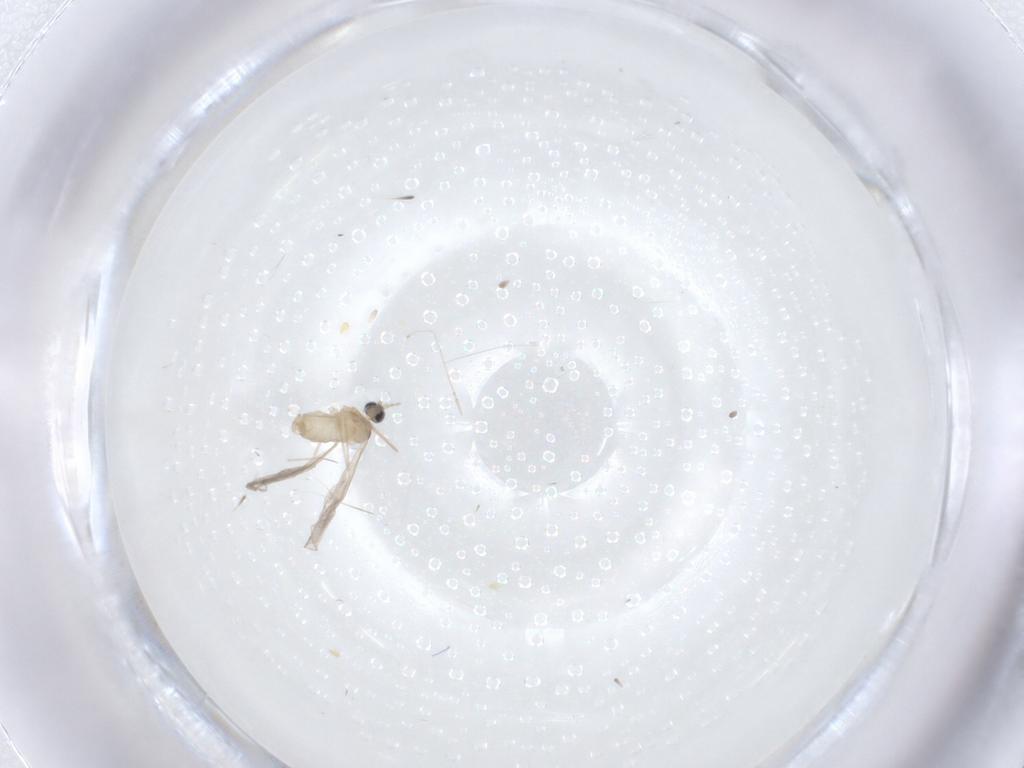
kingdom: Animalia
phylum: Arthropoda
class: Insecta
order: Diptera
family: Cecidomyiidae
